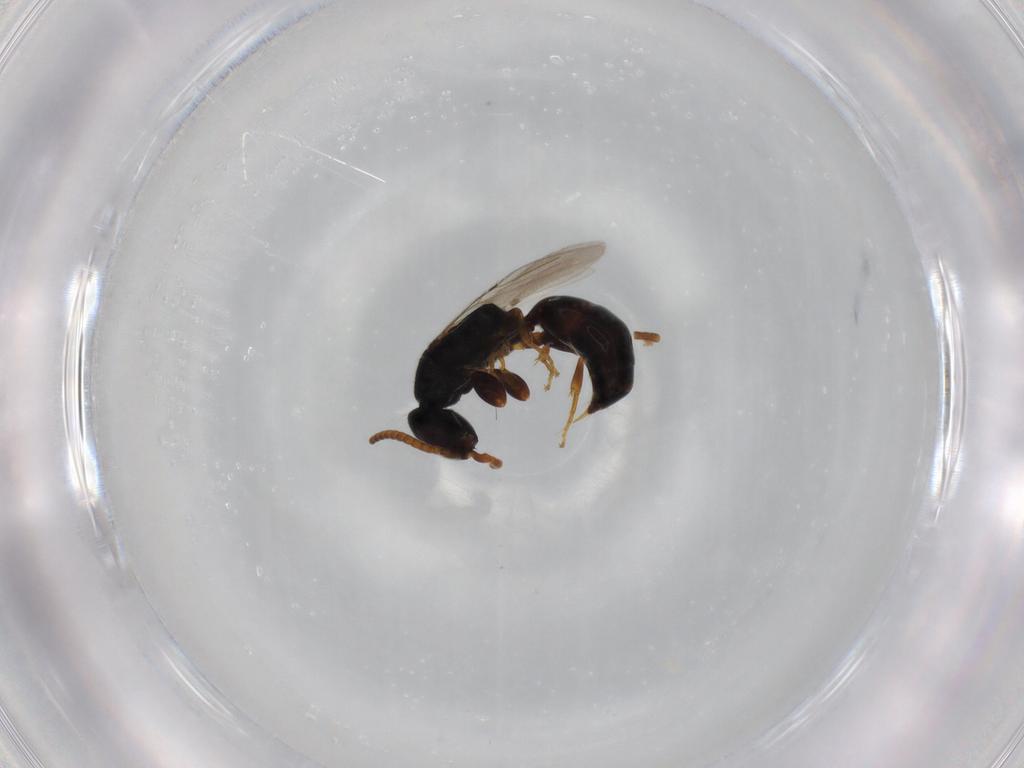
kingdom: Animalia
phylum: Arthropoda
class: Insecta
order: Hymenoptera
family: Bethylidae
